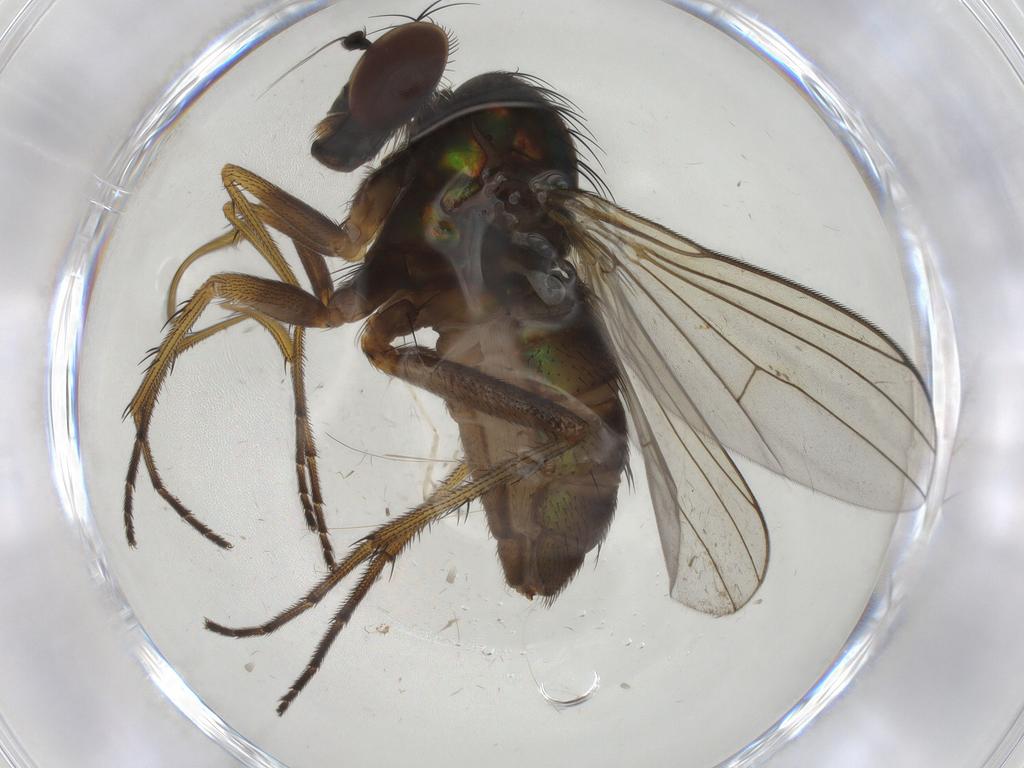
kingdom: Animalia
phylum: Arthropoda
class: Insecta
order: Diptera
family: Dolichopodidae
